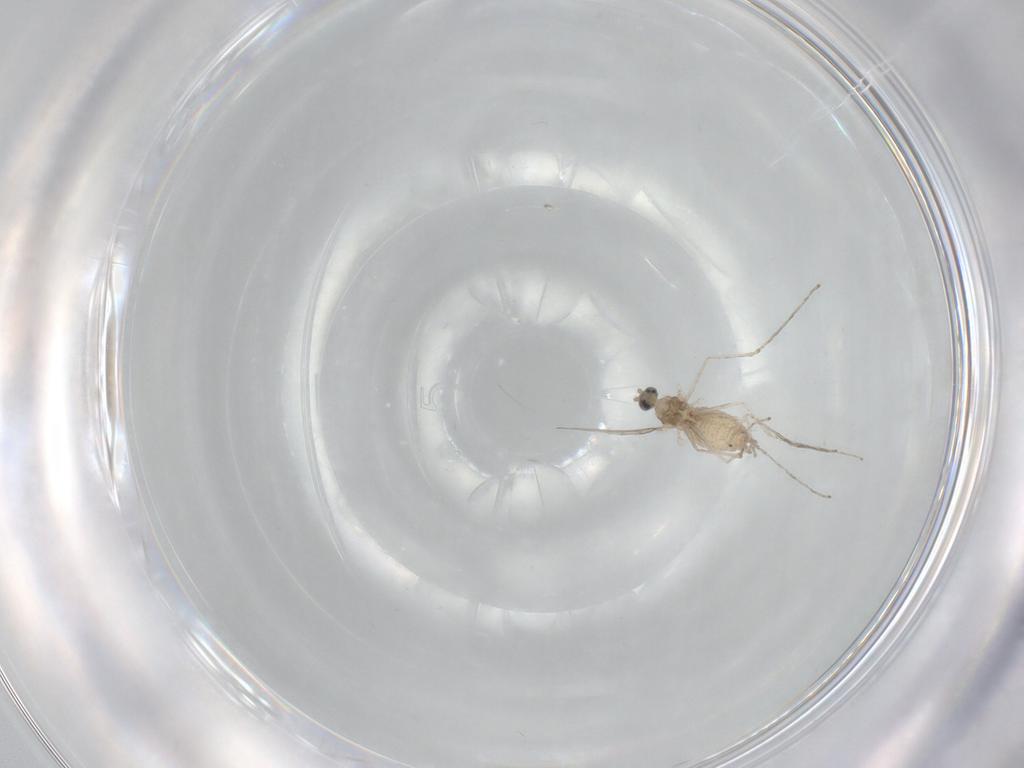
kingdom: Animalia
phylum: Arthropoda
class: Insecta
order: Diptera
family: Cecidomyiidae
